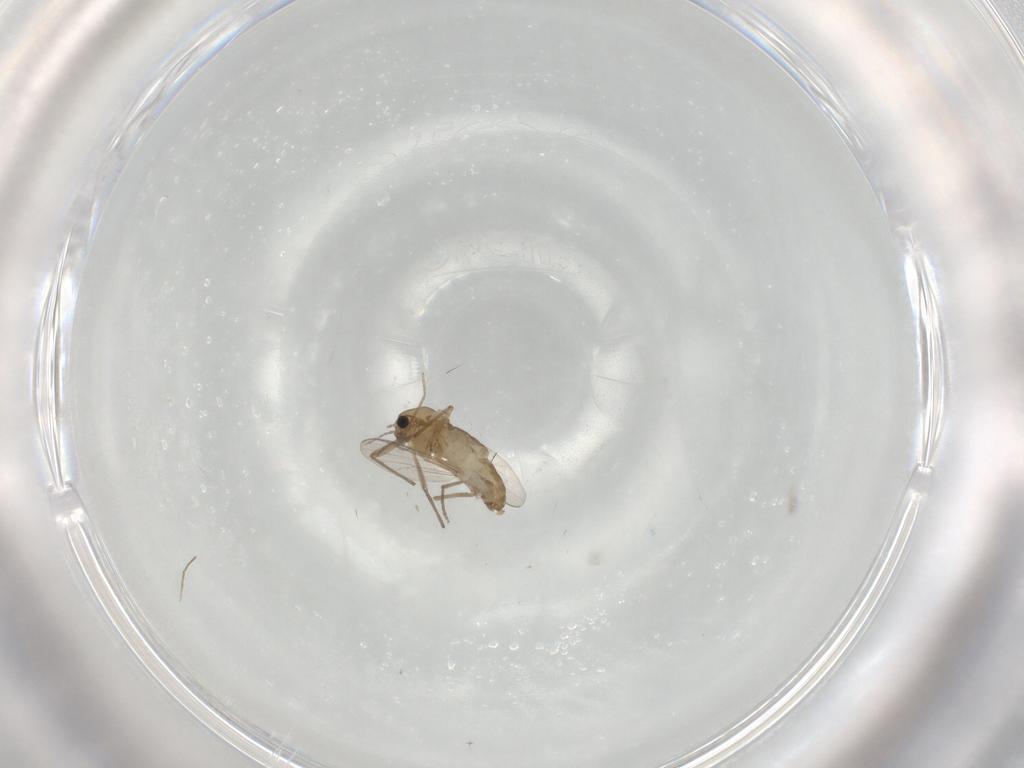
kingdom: Animalia
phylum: Arthropoda
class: Insecta
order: Diptera
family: Chironomidae
